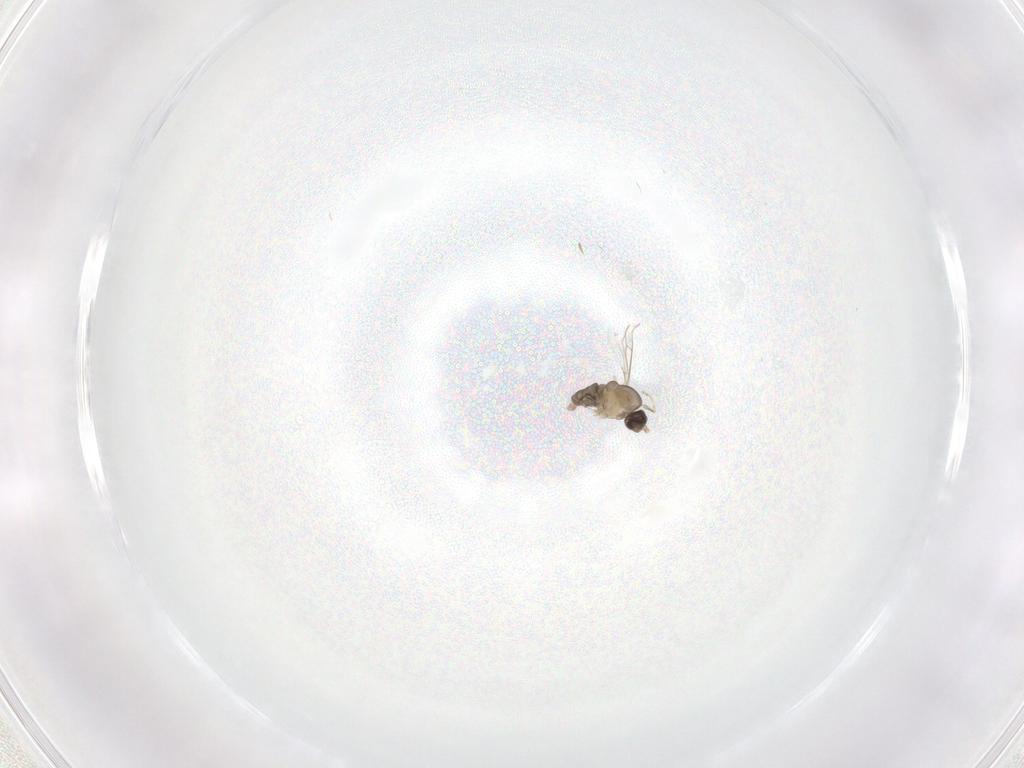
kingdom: Animalia
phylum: Arthropoda
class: Insecta
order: Diptera
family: Cecidomyiidae
